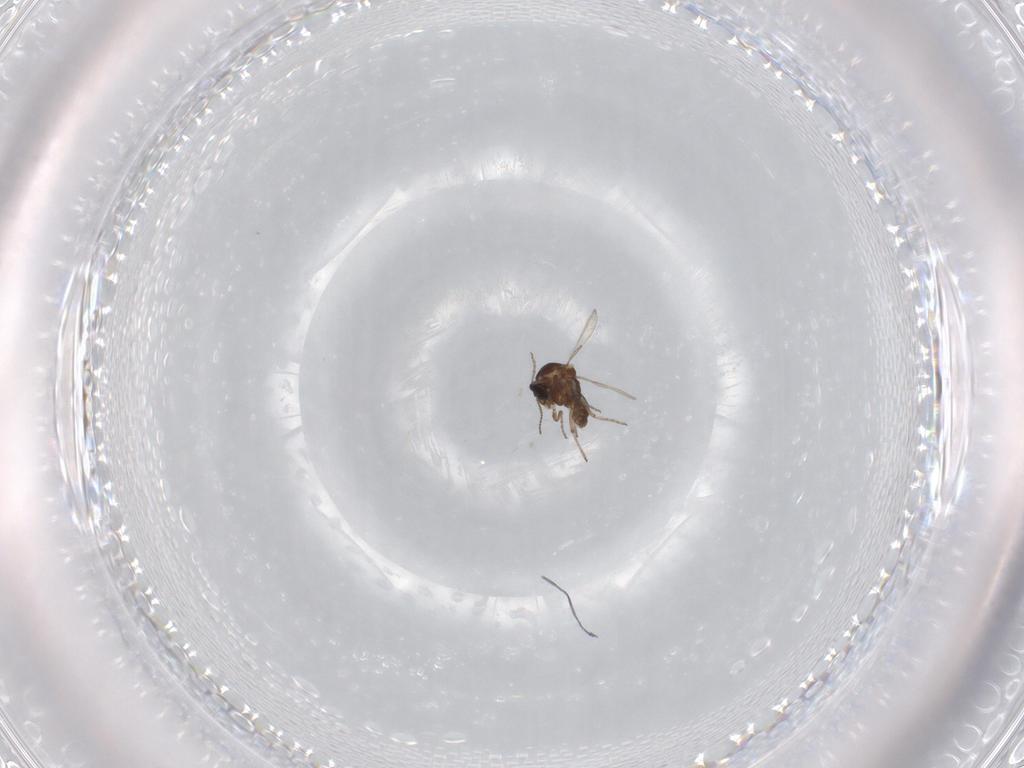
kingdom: Animalia
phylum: Arthropoda
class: Insecta
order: Diptera
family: Ceratopogonidae
